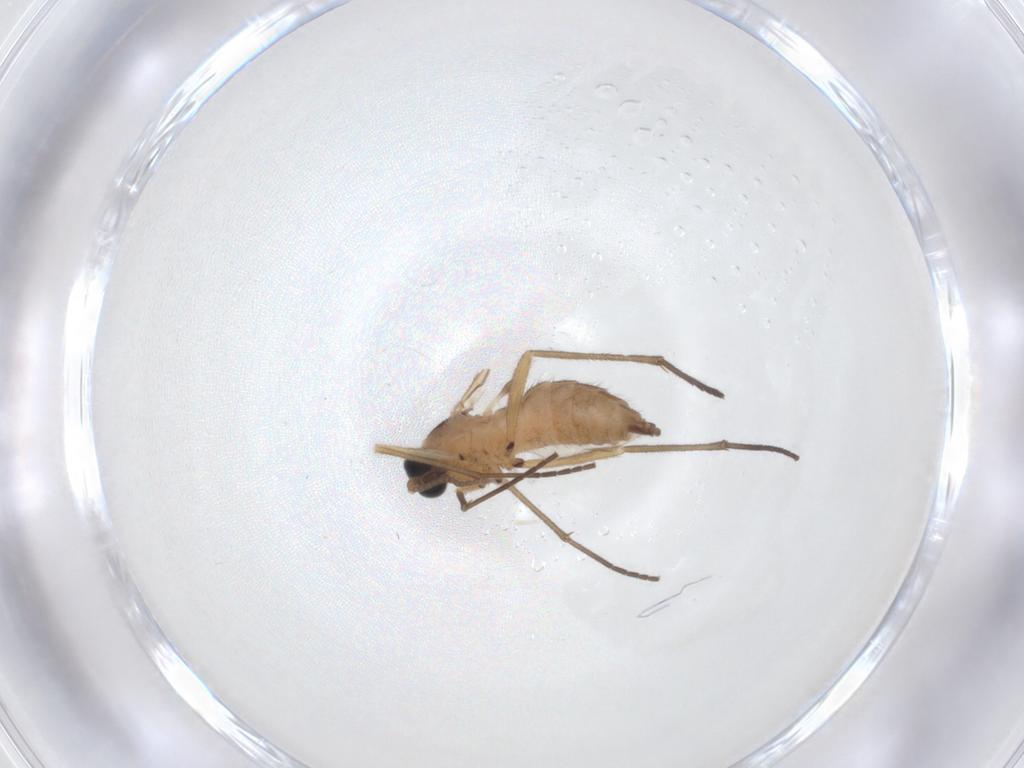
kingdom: Animalia
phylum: Arthropoda
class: Insecta
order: Diptera
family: Sciaridae
